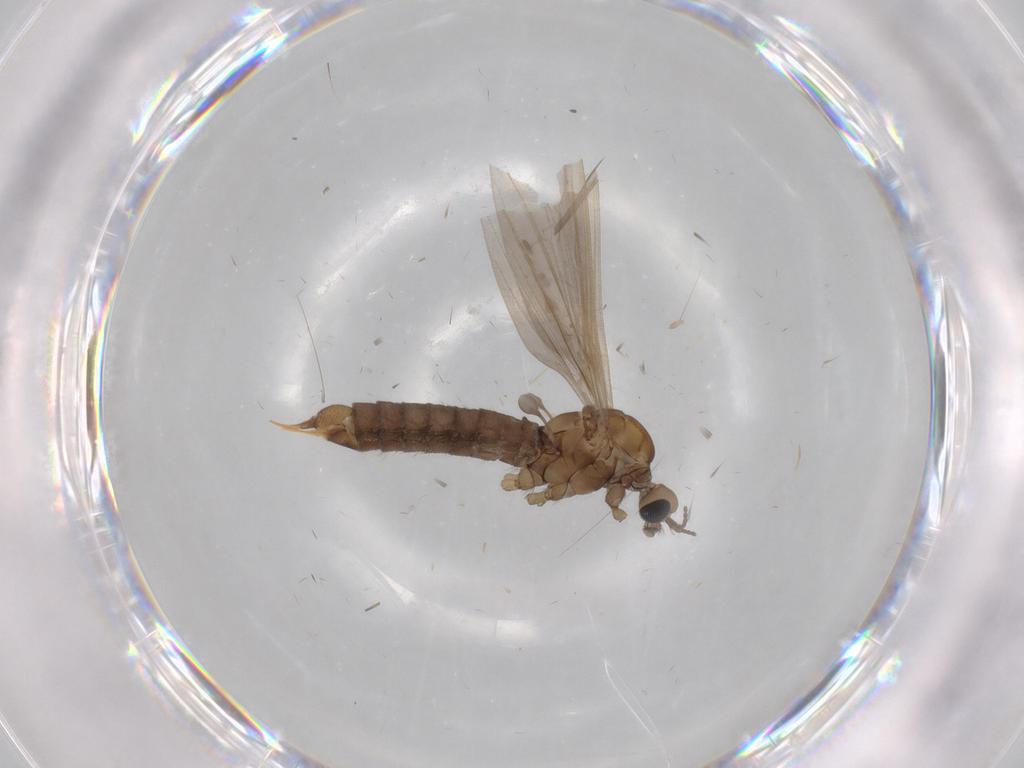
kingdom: Animalia
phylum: Arthropoda
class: Insecta
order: Diptera
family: Limoniidae
